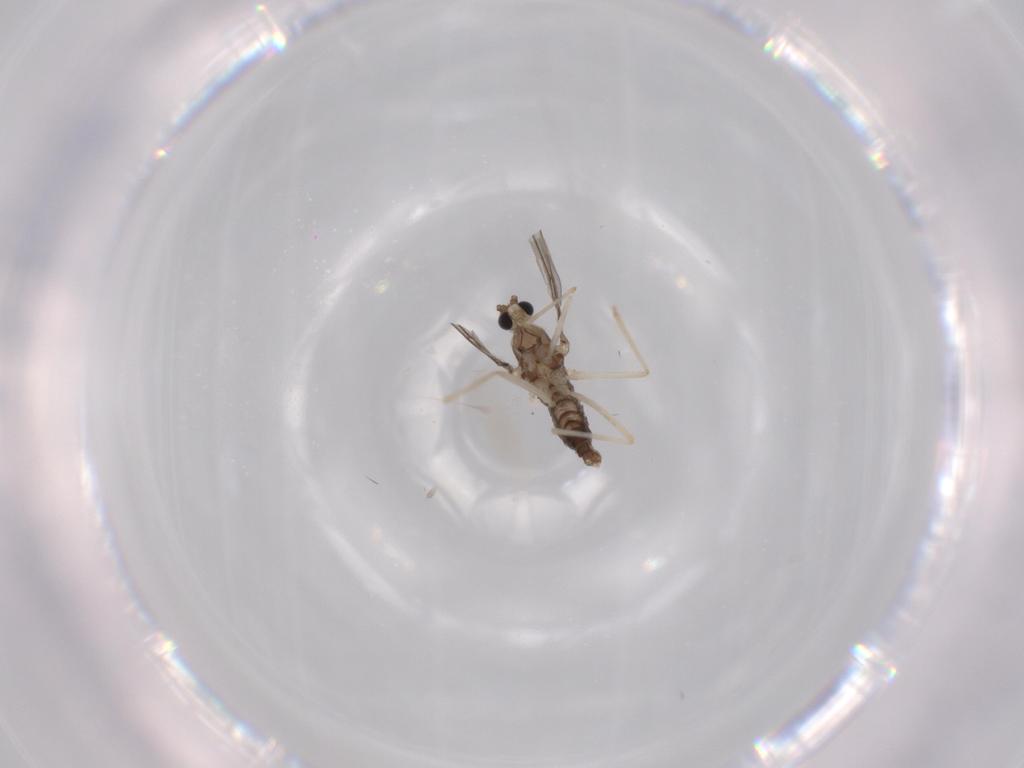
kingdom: Animalia
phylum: Arthropoda
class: Insecta
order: Diptera
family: Cecidomyiidae
